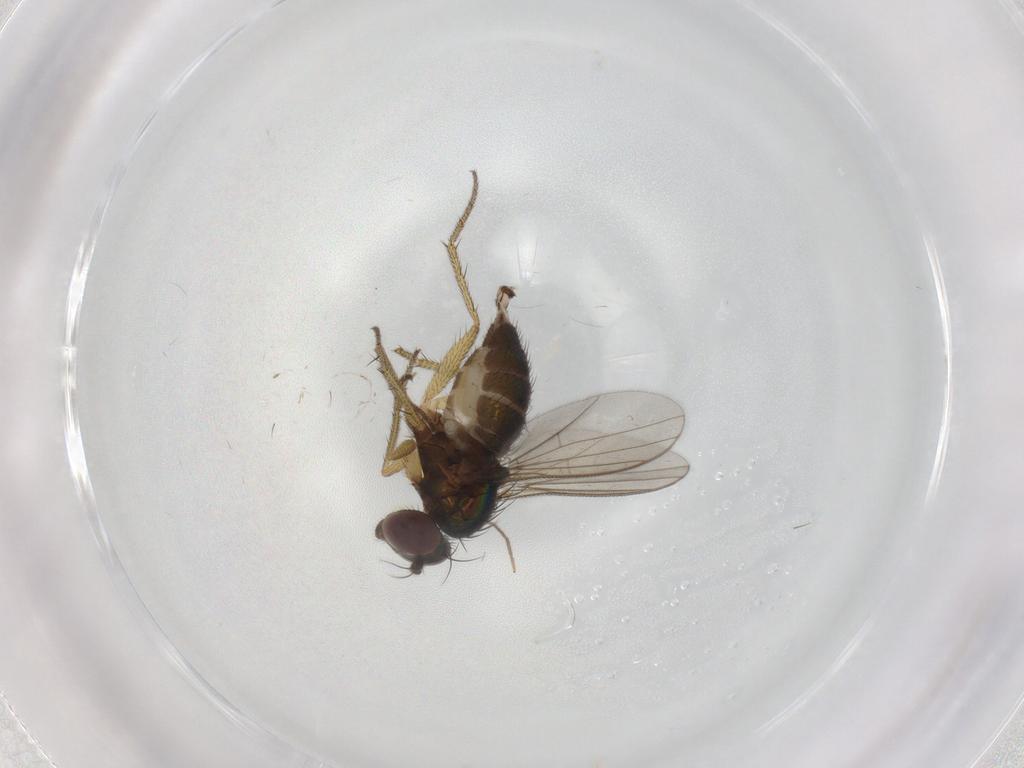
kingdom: Animalia
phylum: Arthropoda
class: Insecta
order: Diptera
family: Dolichopodidae
